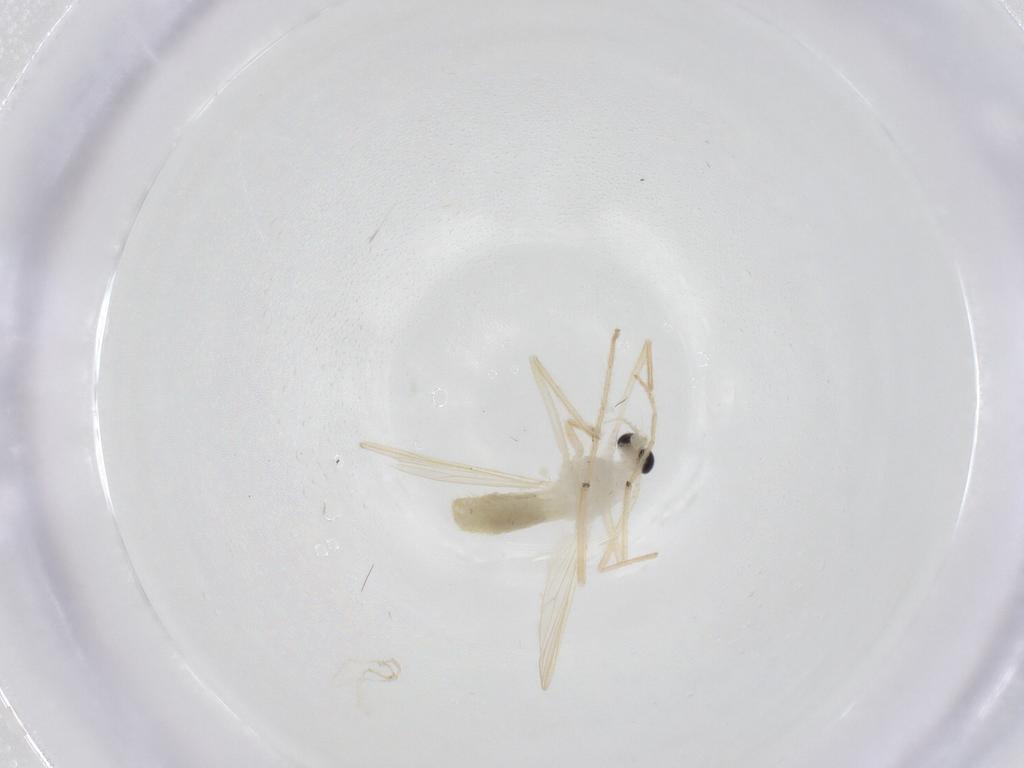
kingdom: Animalia
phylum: Arthropoda
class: Insecta
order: Diptera
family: Chironomidae
